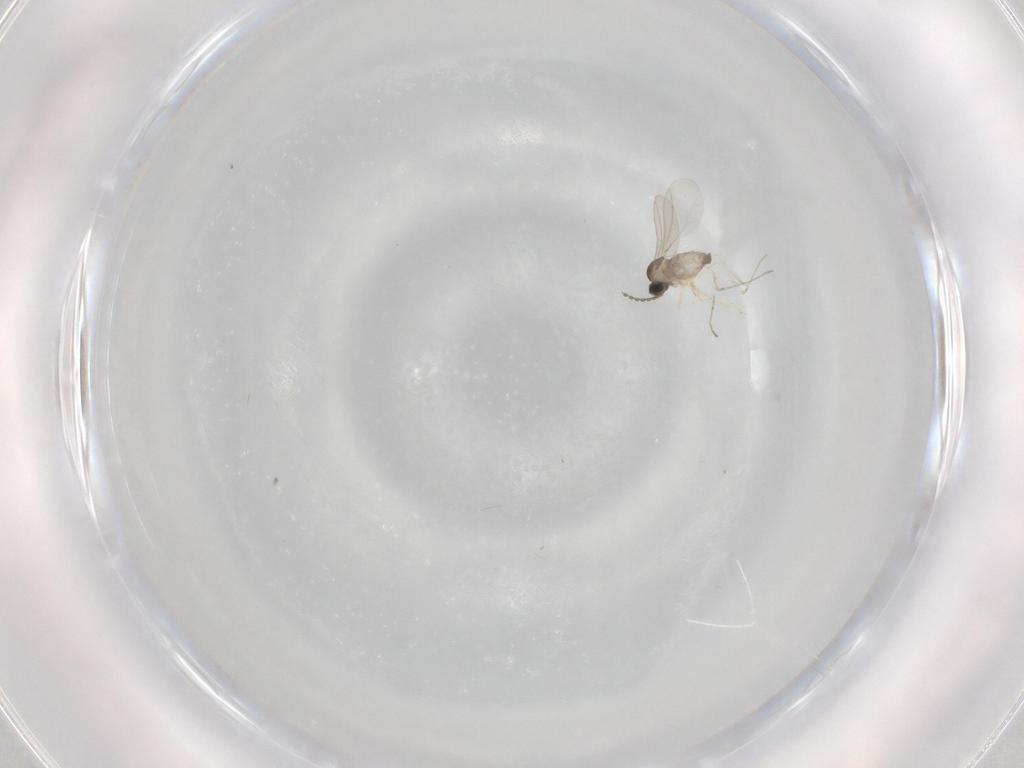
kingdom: Animalia
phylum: Arthropoda
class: Insecta
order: Diptera
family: Cecidomyiidae
